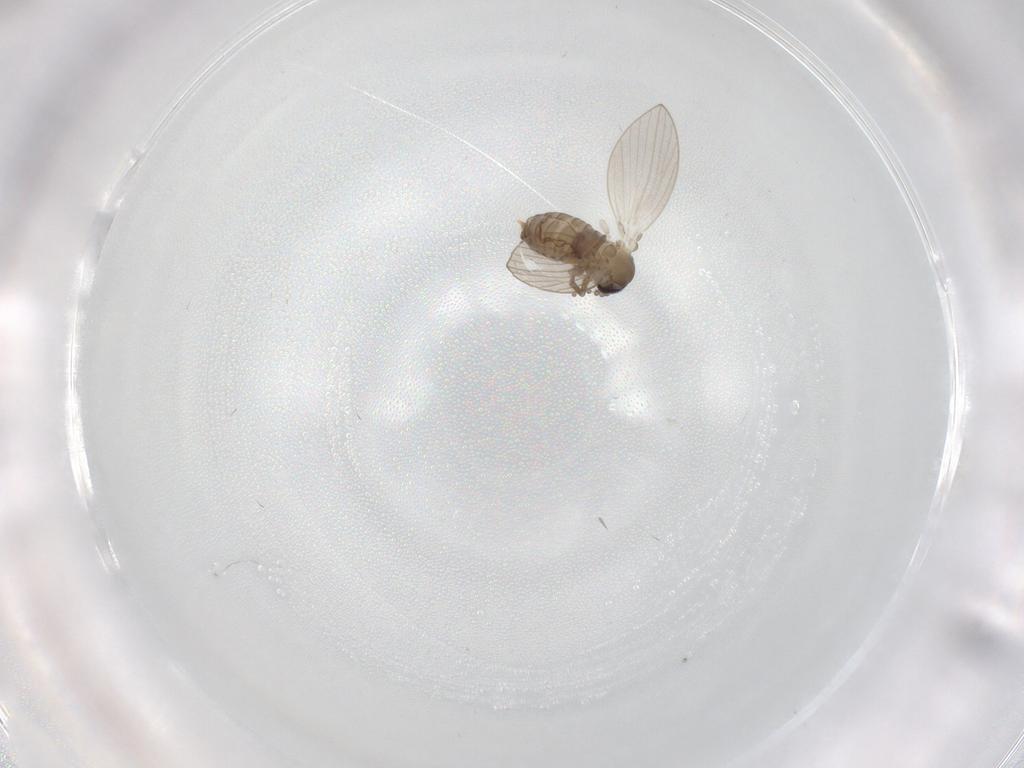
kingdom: Animalia
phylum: Arthropoda
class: Insecta
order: Diptera
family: Psychodidae
